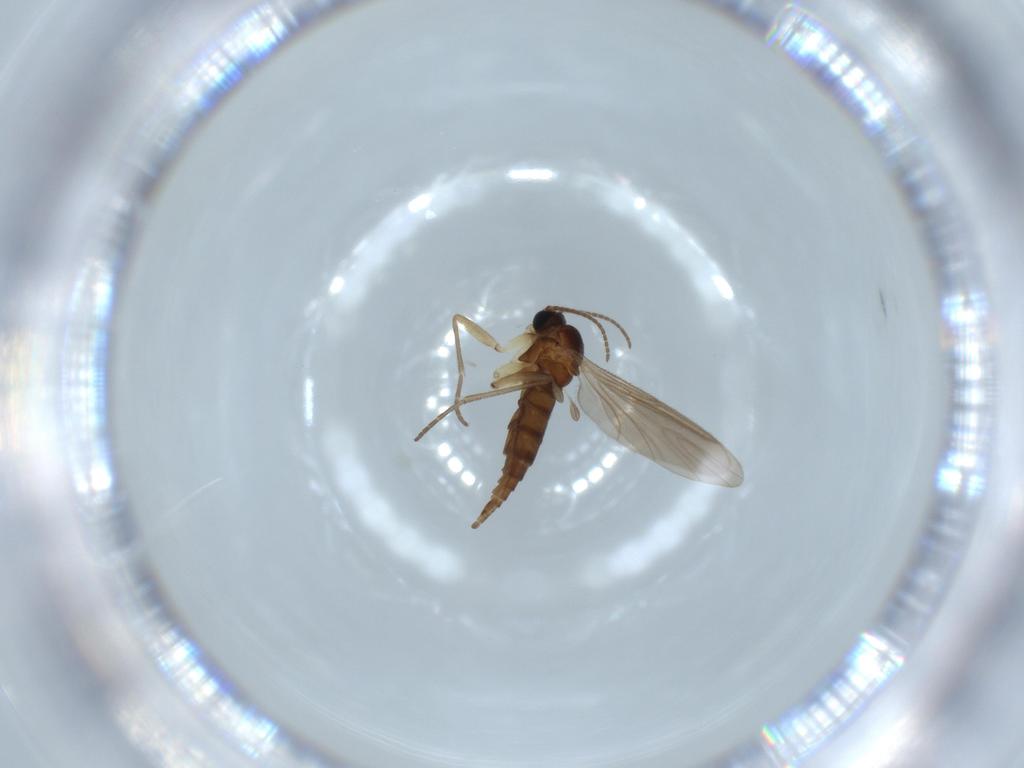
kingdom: Animalia
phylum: Arthropoda
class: Insecta
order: Diptera
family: Sciaridae
